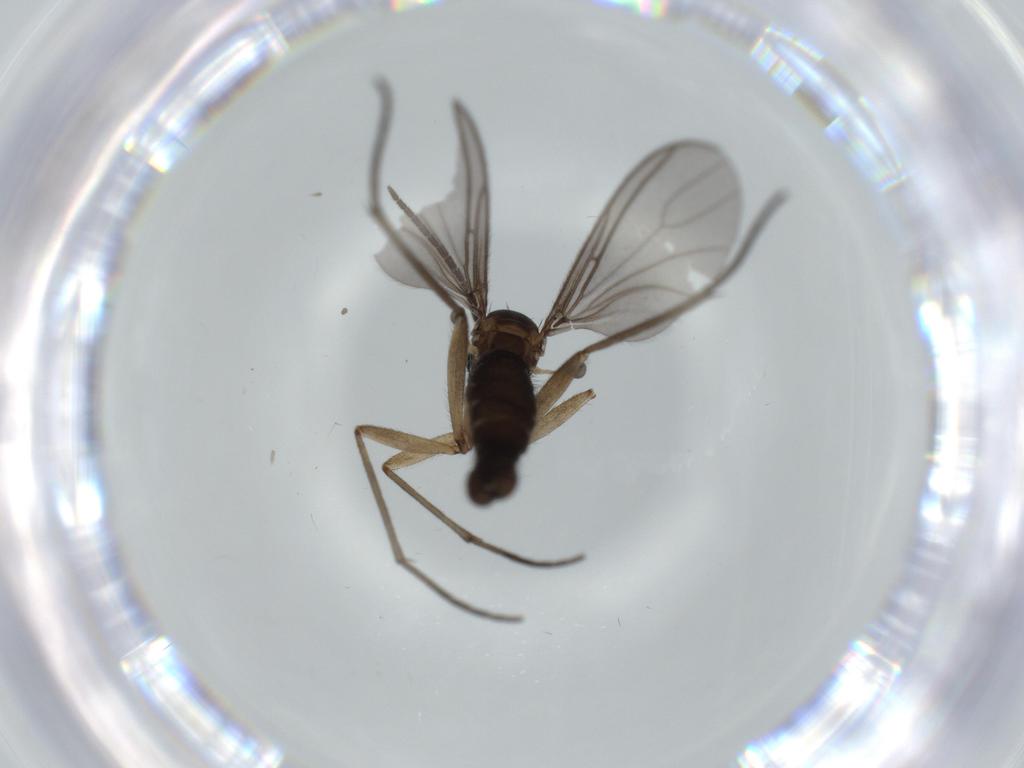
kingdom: Animalia
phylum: Arthropoda
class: Insecta
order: Diptera
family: Sciaridae
